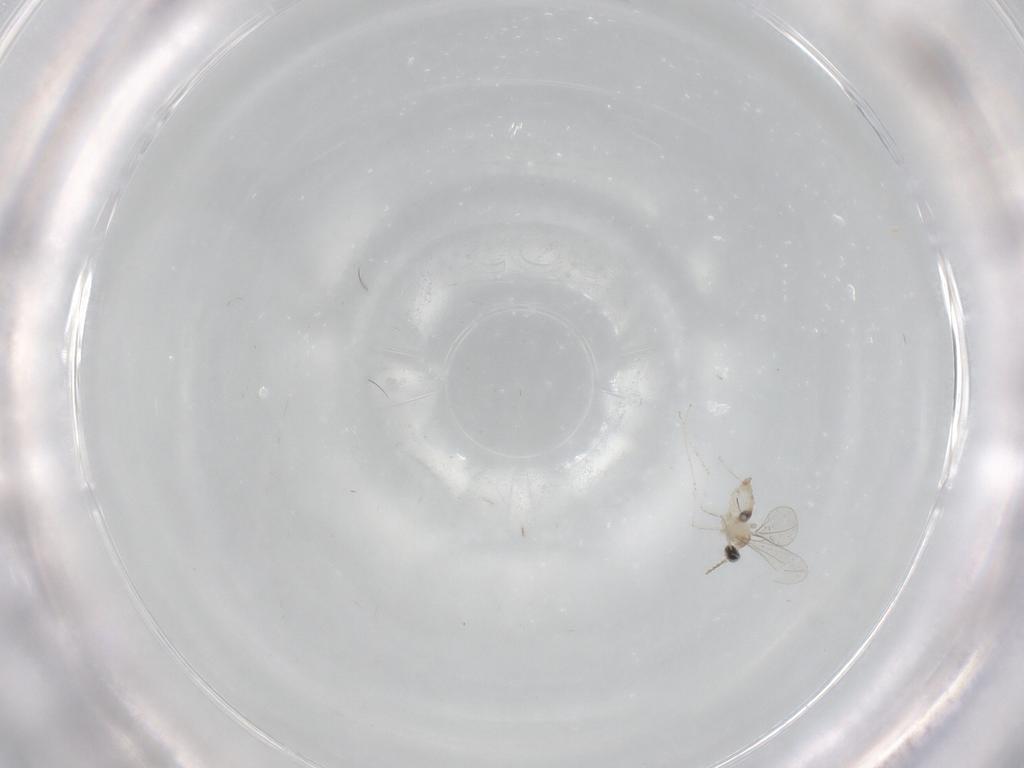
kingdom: Animalia
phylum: Arthropoda
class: Insecta
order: Diptera
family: Cecidomyiidae
